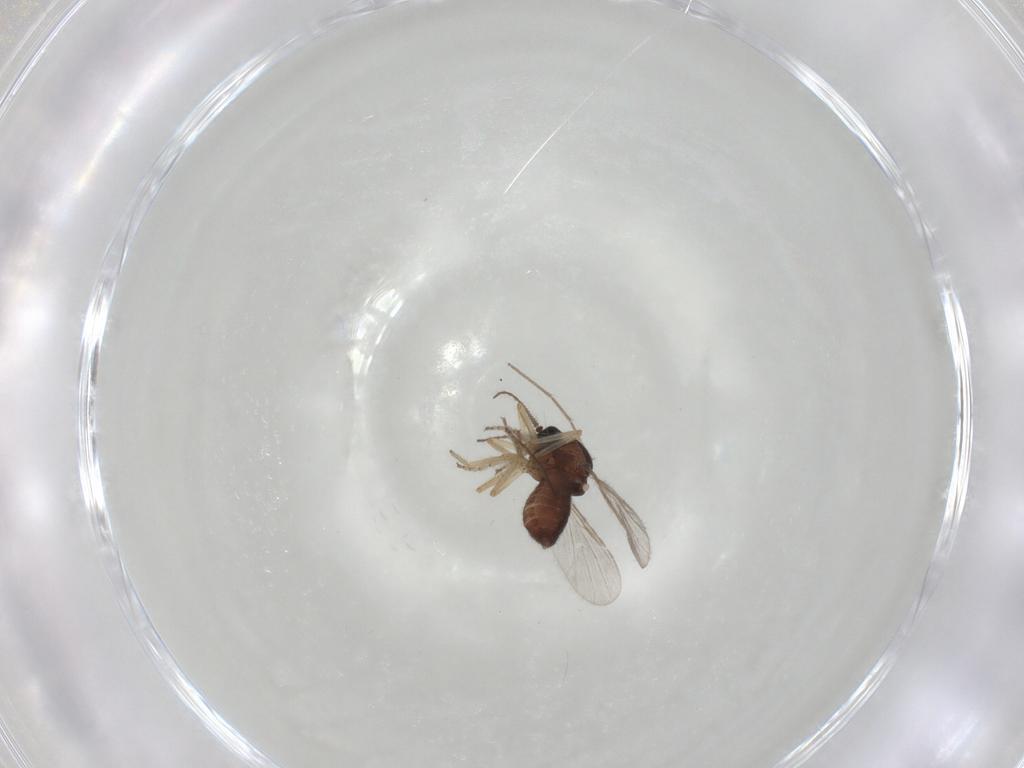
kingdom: Animalia
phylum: Arthropoda
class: Insecta
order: Diptera
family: Ceratopogonidae
